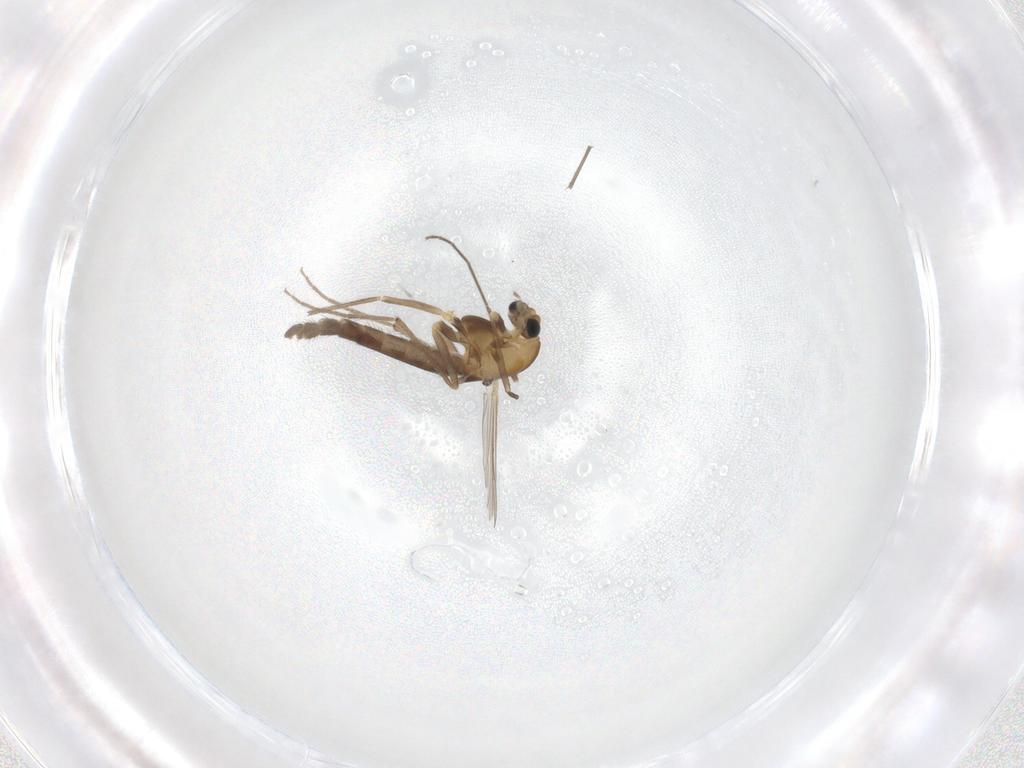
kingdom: Animalia
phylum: Arthropoda
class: Insecta
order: Diptera
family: Chironomidae
